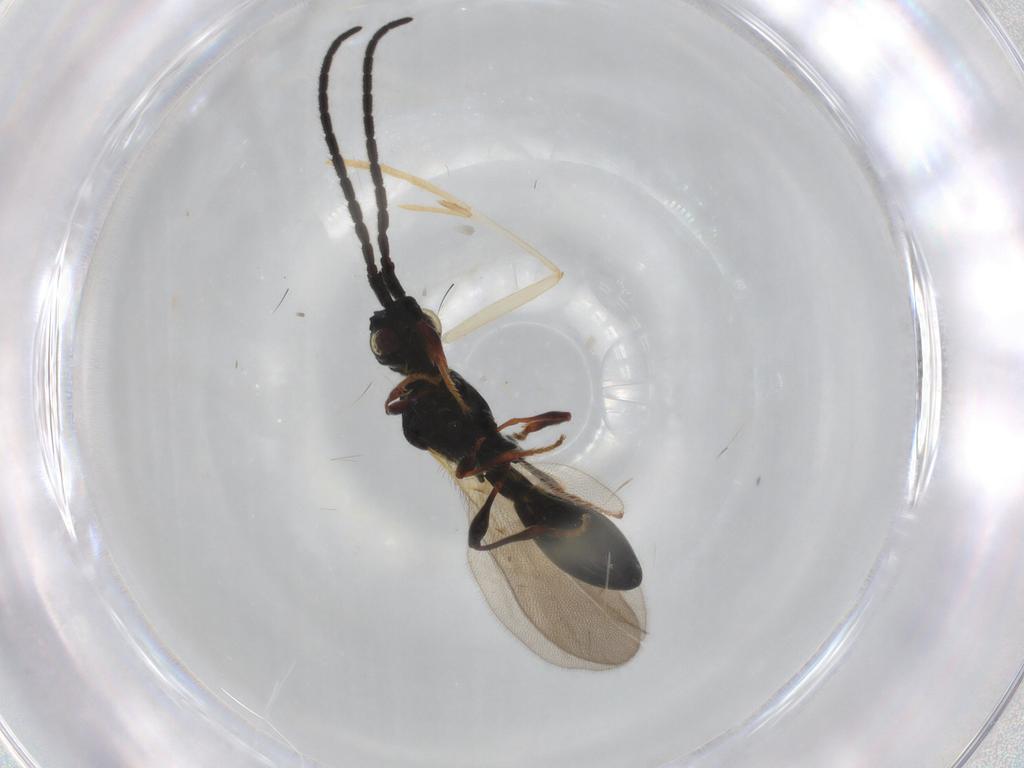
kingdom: Animalia
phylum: Arthropoda
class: Insecta
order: Hymenoptera
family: Diapriidae
